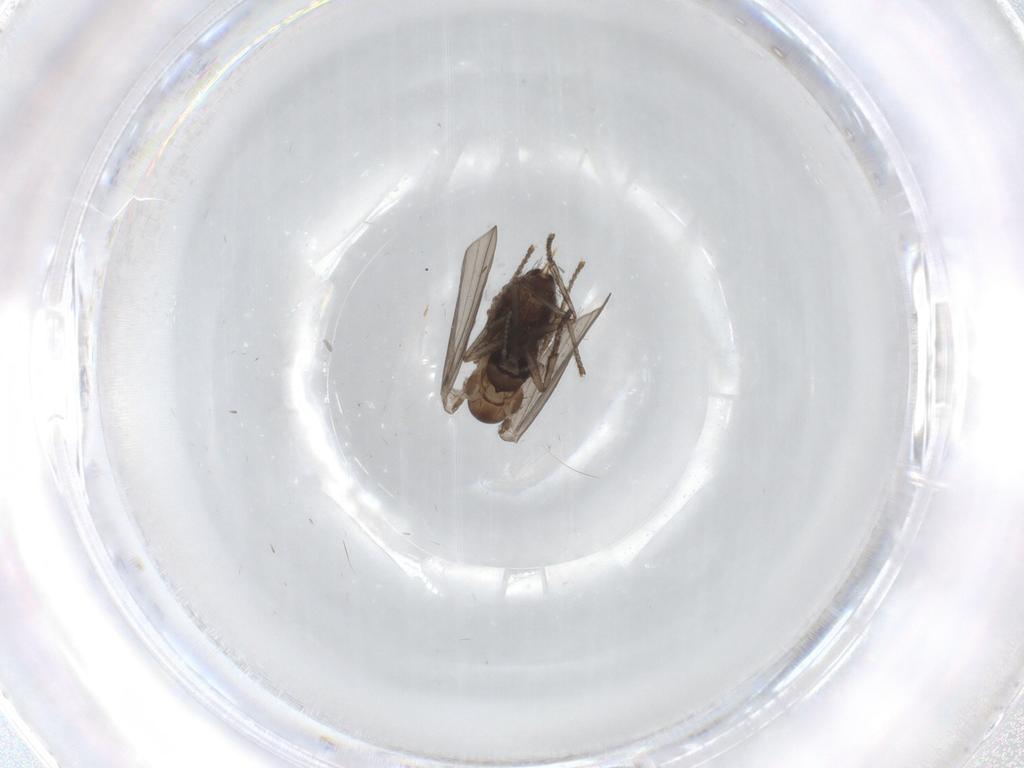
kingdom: Animalia
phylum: Arthropoda
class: Insecta
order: Diptera
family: Psychodidae
